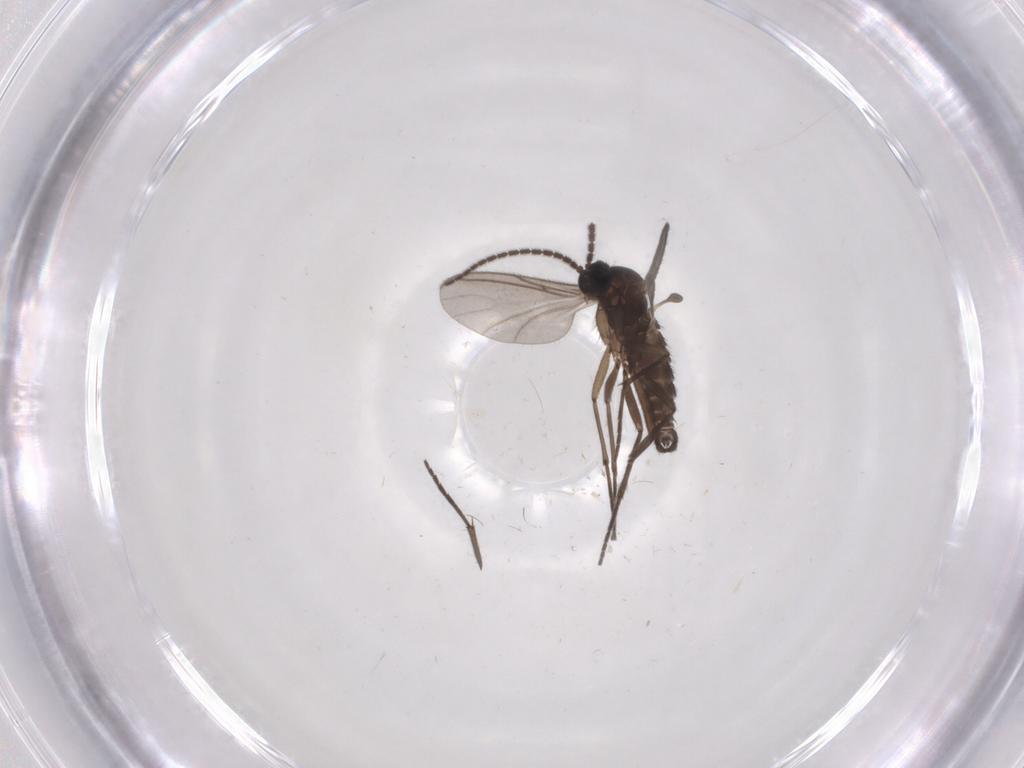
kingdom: Animalia
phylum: Arthropoda
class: Insecta
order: Diptera
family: Sciaridae
